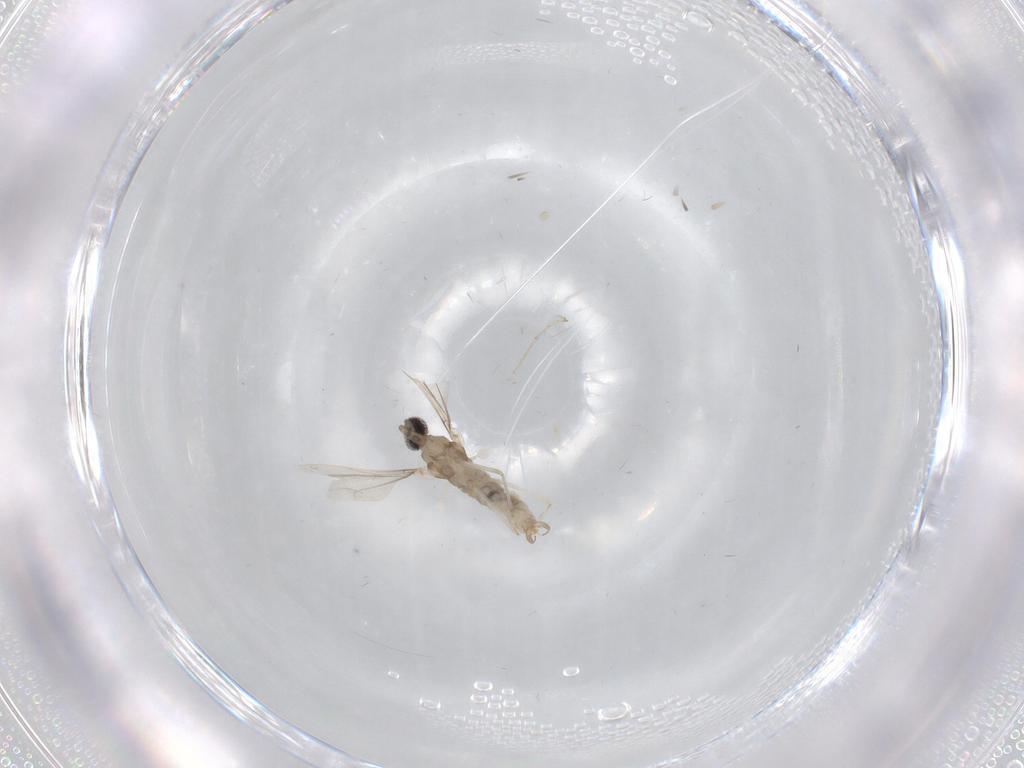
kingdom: Animalia
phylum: Arthropoda
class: Insecta
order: Diptera
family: Cecidomyiidae
